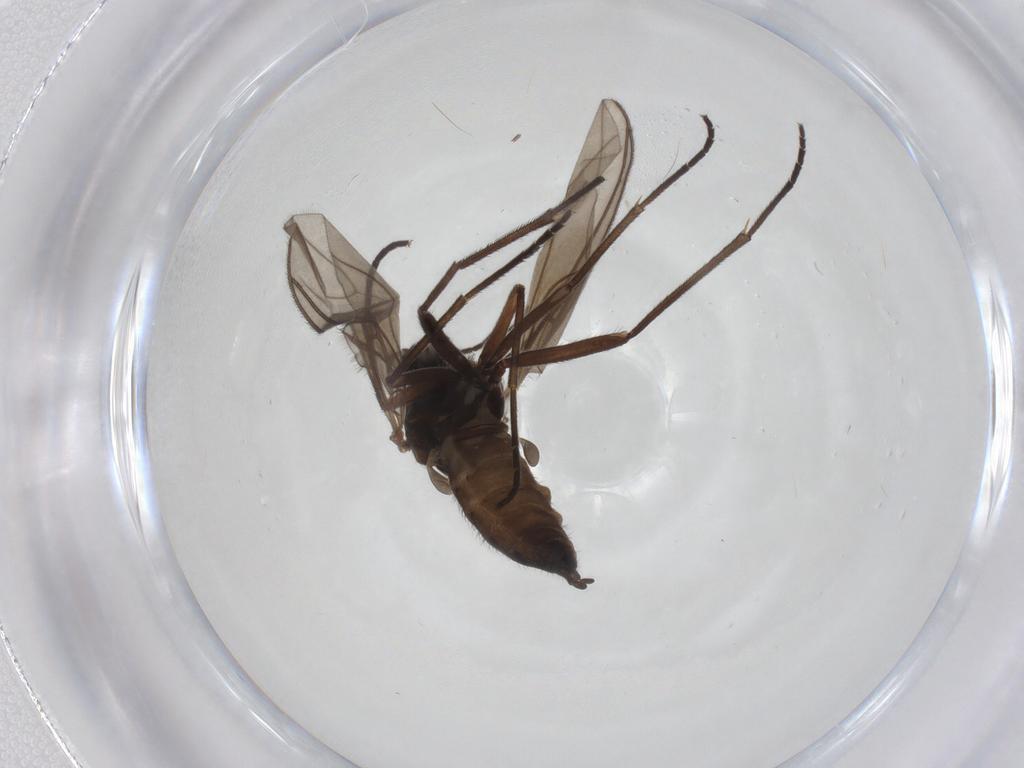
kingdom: Animalia
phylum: Arthropoda
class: Insecta
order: Diptera
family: Sciaridae
